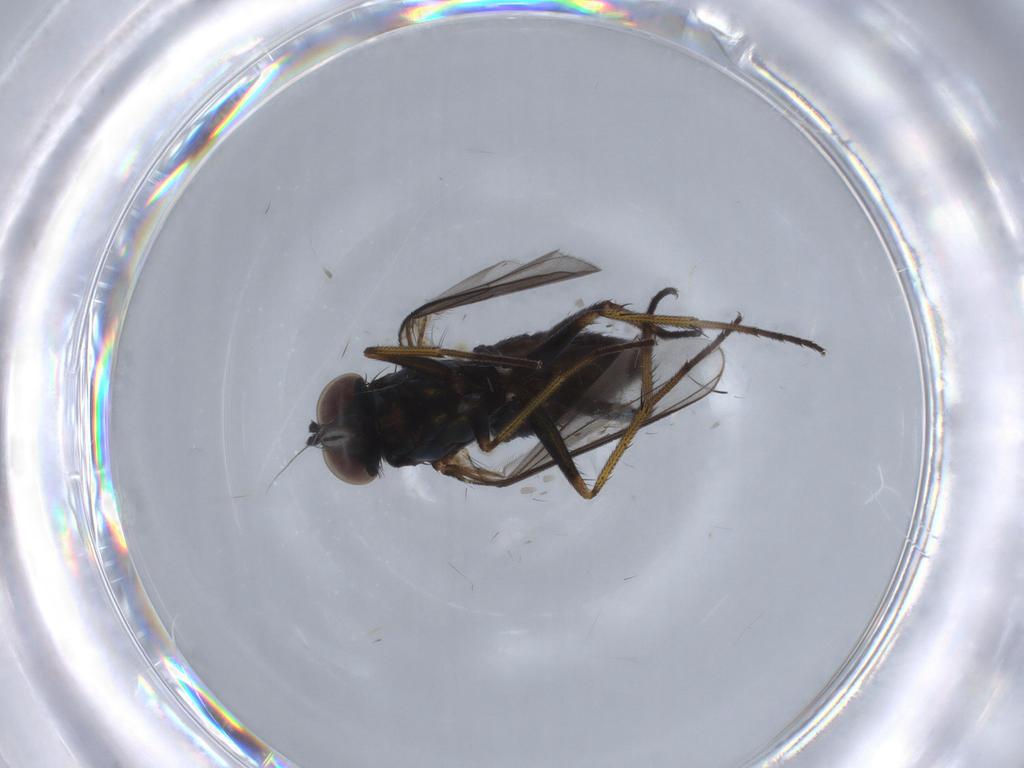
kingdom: Animalia
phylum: Arthropoda
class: Insecta
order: Diptera
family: Dolichopodidae
